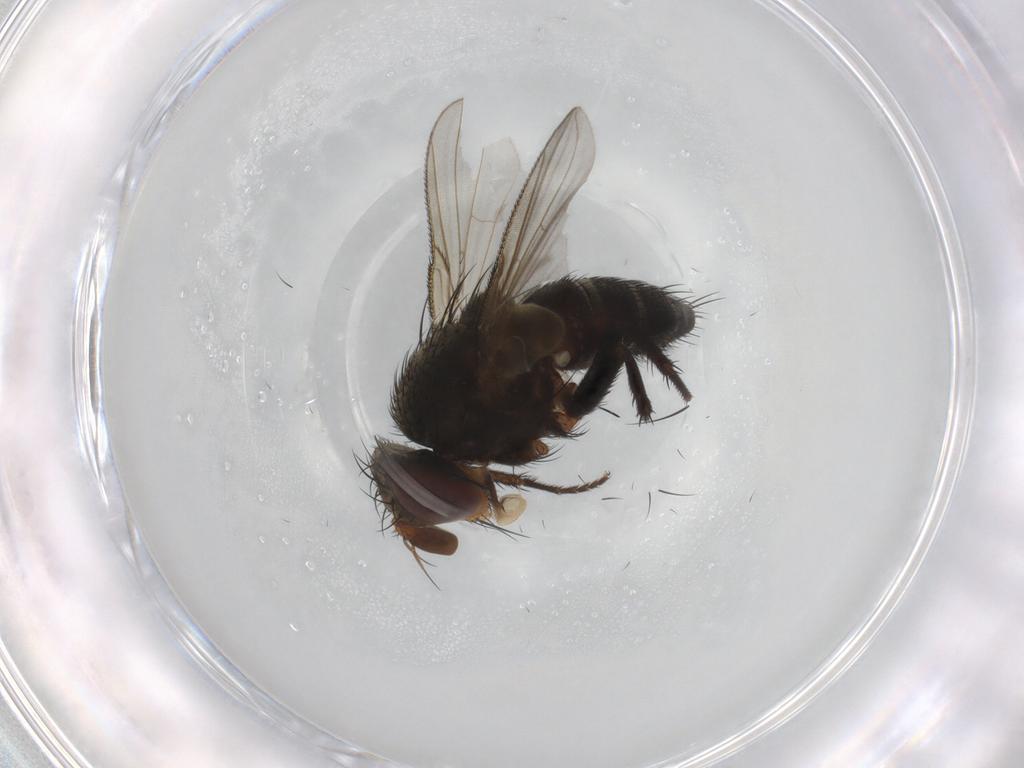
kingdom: Animalia
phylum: Arthropoda
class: Insecta
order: Diptera
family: Tachinidae
